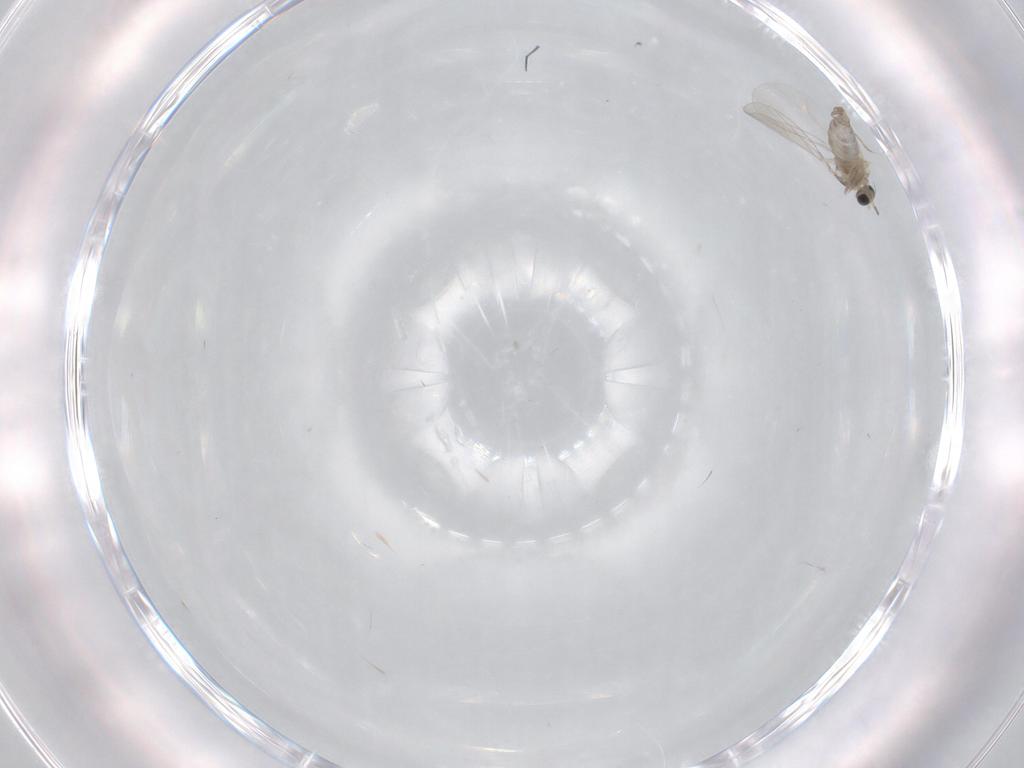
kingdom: Animalia
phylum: Arthropoda
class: Insecta
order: Diptera
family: Cecidomyiidae
